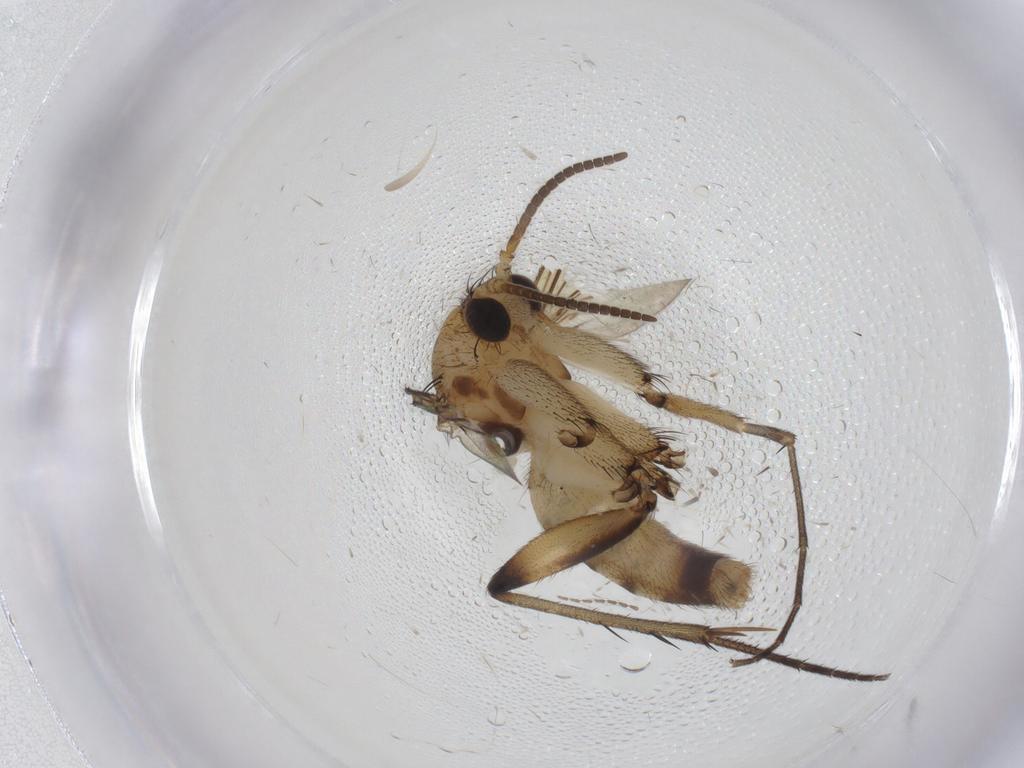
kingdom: Animalia
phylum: Arthropoda
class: Insecta
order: Diptera
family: Mycetophilidae
